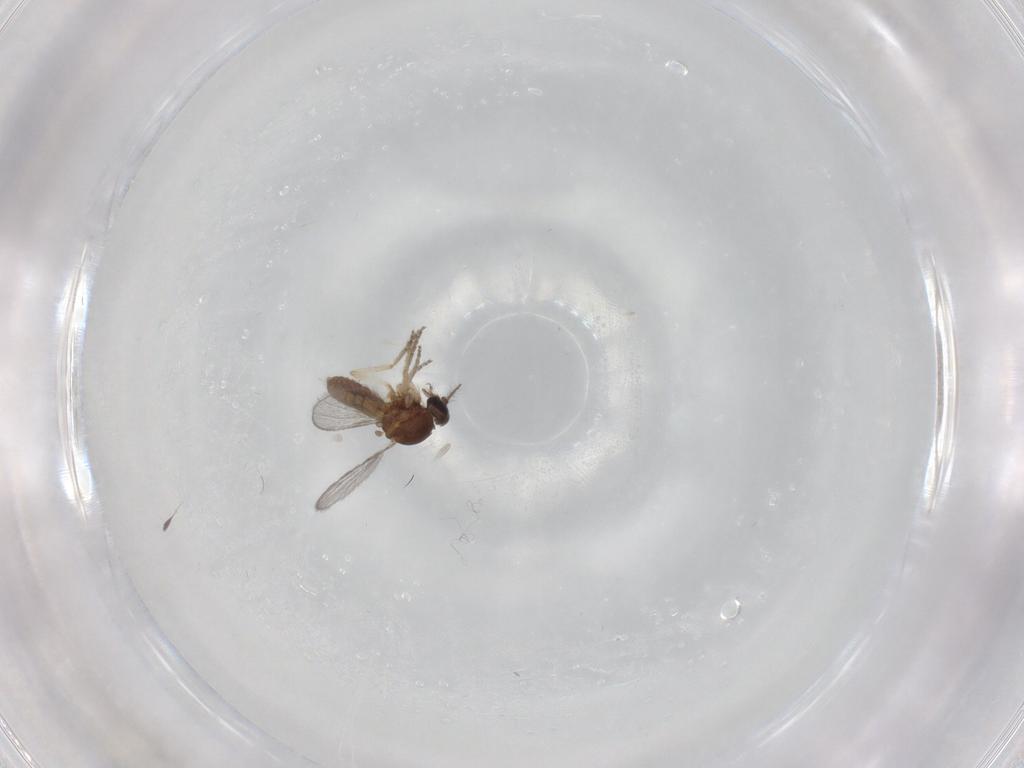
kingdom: Animalia
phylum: Arthropoda
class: Insecta
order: Diptera
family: Ceratopogonidae
